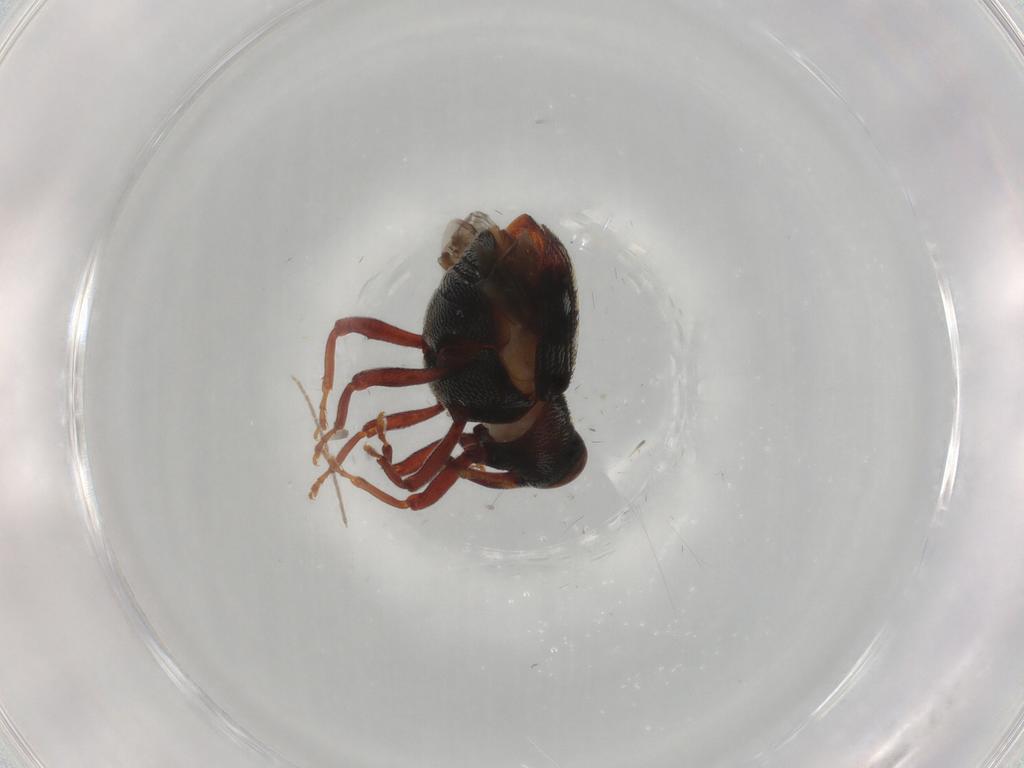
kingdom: Animalia
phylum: Arthropoda
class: Insecta
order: Coleoptera
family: Curculionidae
